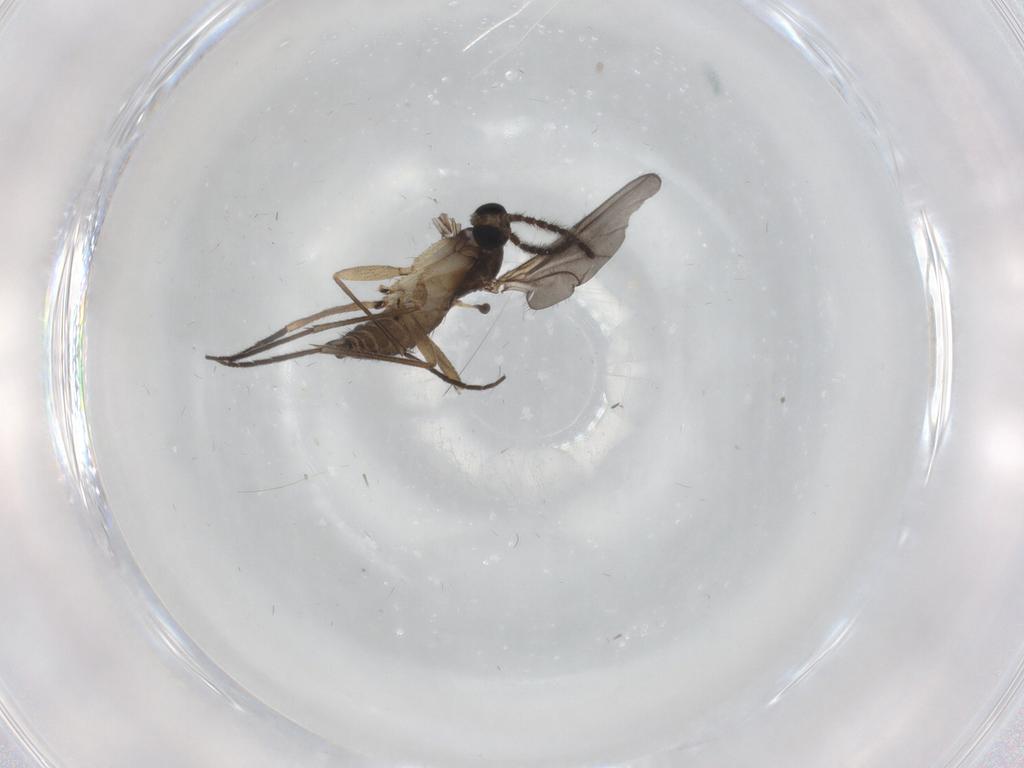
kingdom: Animalia
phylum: Arthropoda
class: Insecta
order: Diptera
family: Sciaridae
